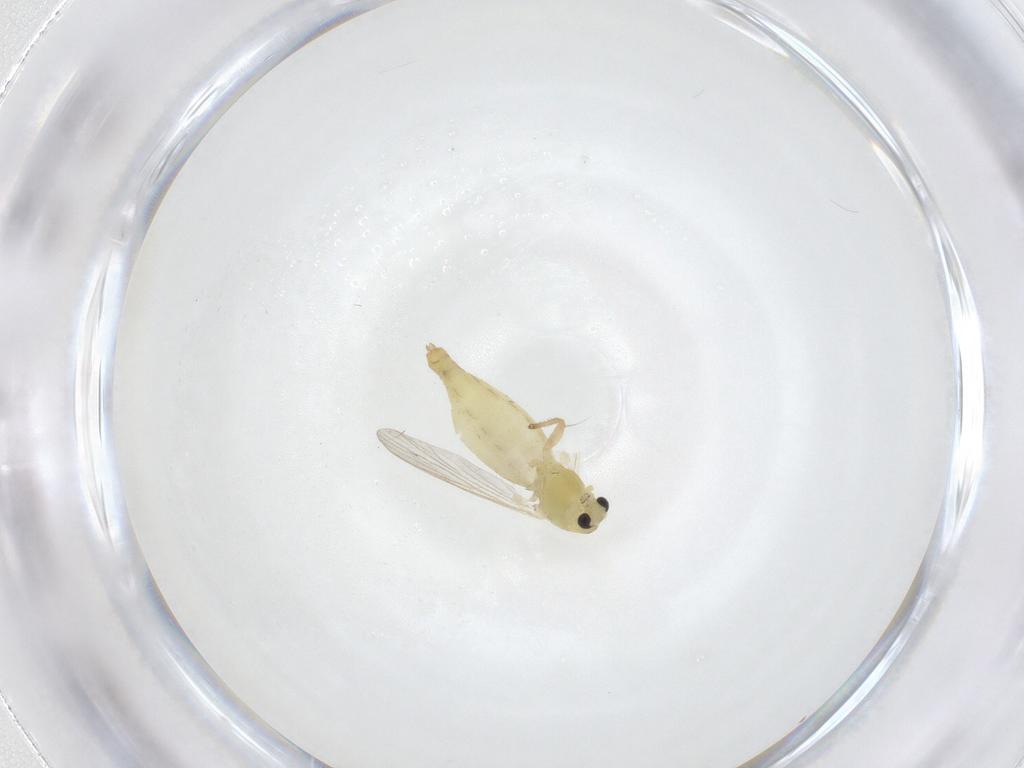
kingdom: Animalia
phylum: Arthropoda
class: Insecta
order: Diptera
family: Chironomidae
